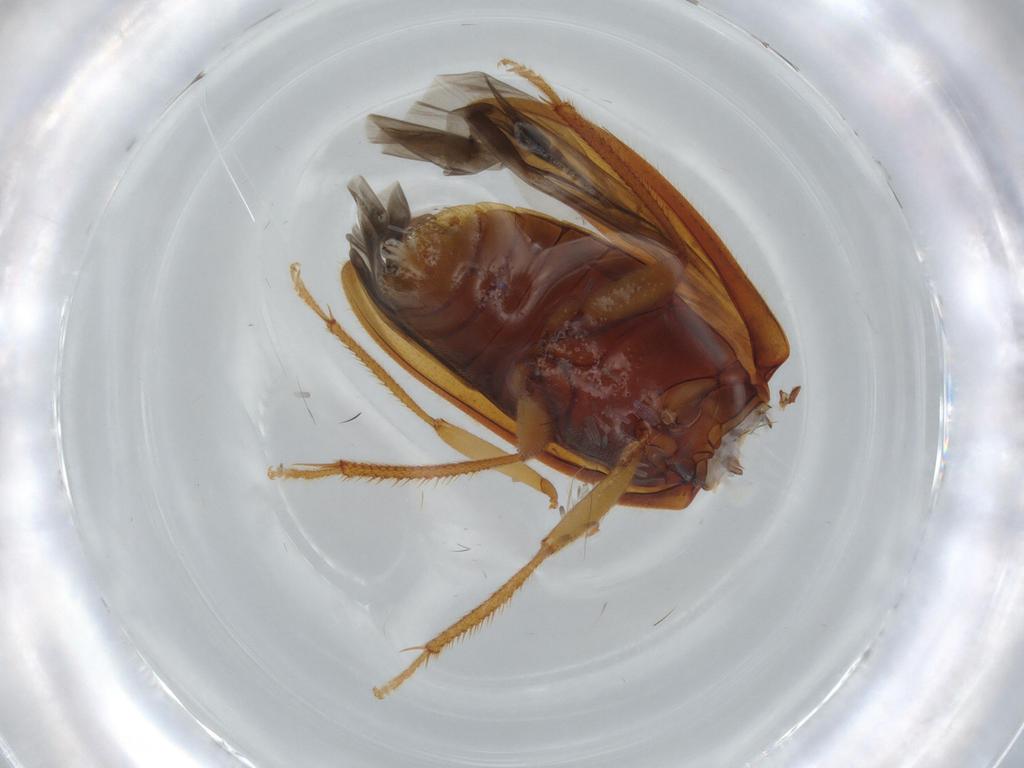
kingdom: Animalia
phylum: Arthropoda
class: Insecta
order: Coleoptera
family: Ptilodactylidae
